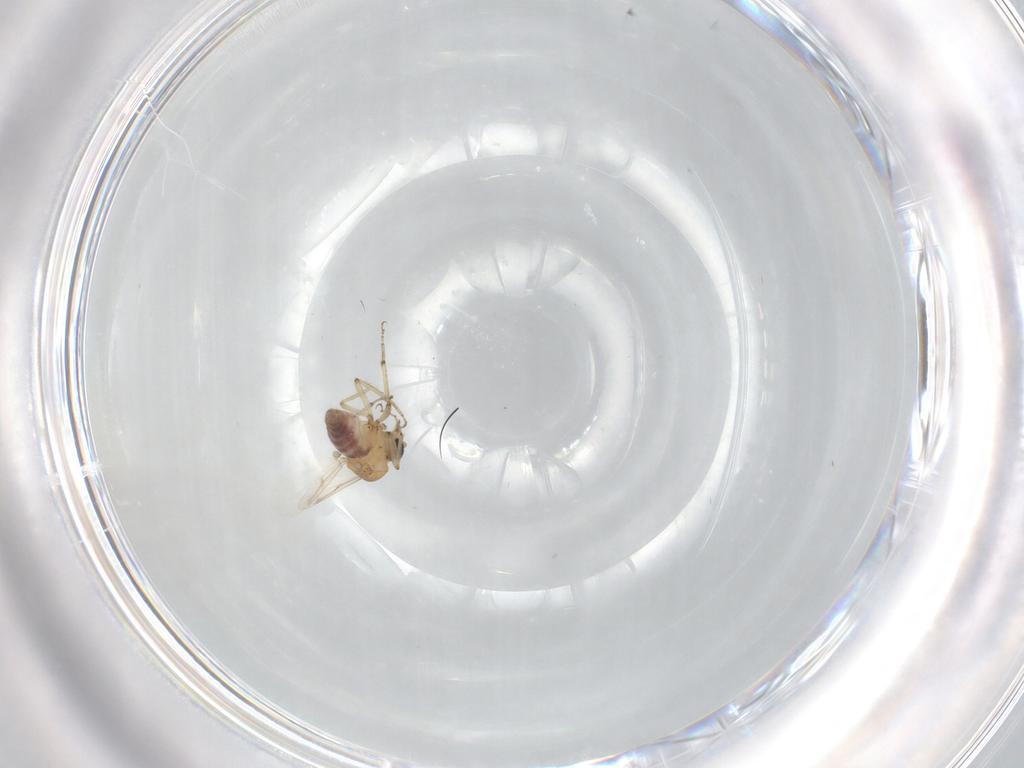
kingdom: Animalia
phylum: Arthropoda
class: Insecta
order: Diptera
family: Ceratopogonidae
